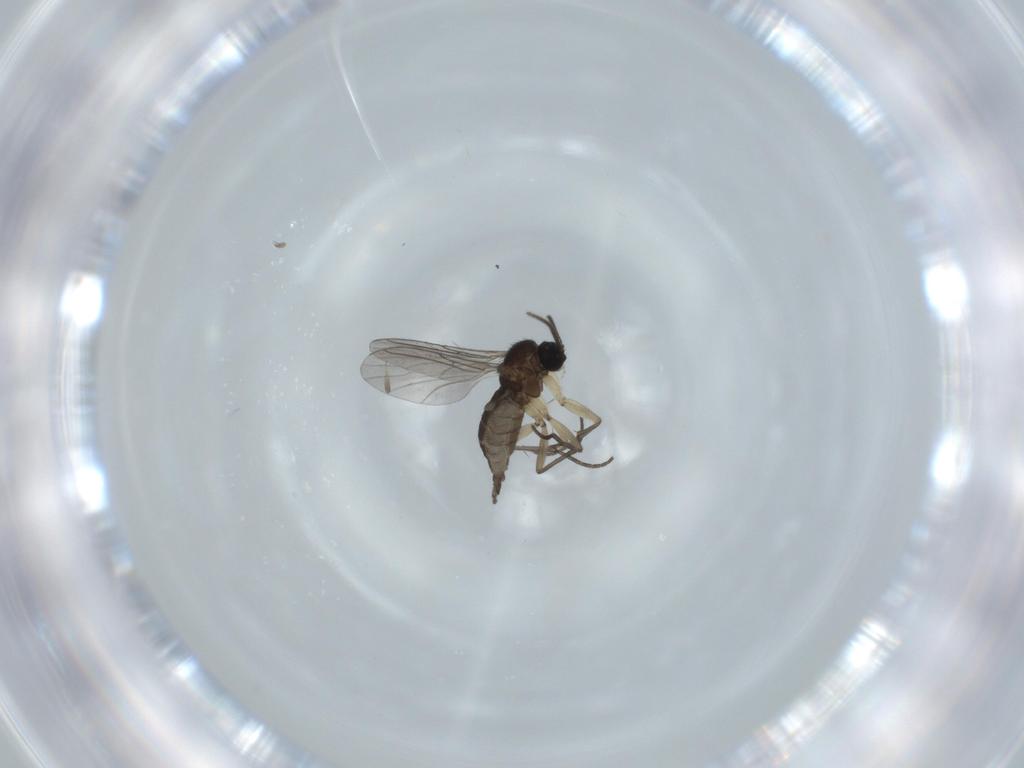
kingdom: Animalia
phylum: Arthropoda
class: Insecta
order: Diptera
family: Sciaridae
